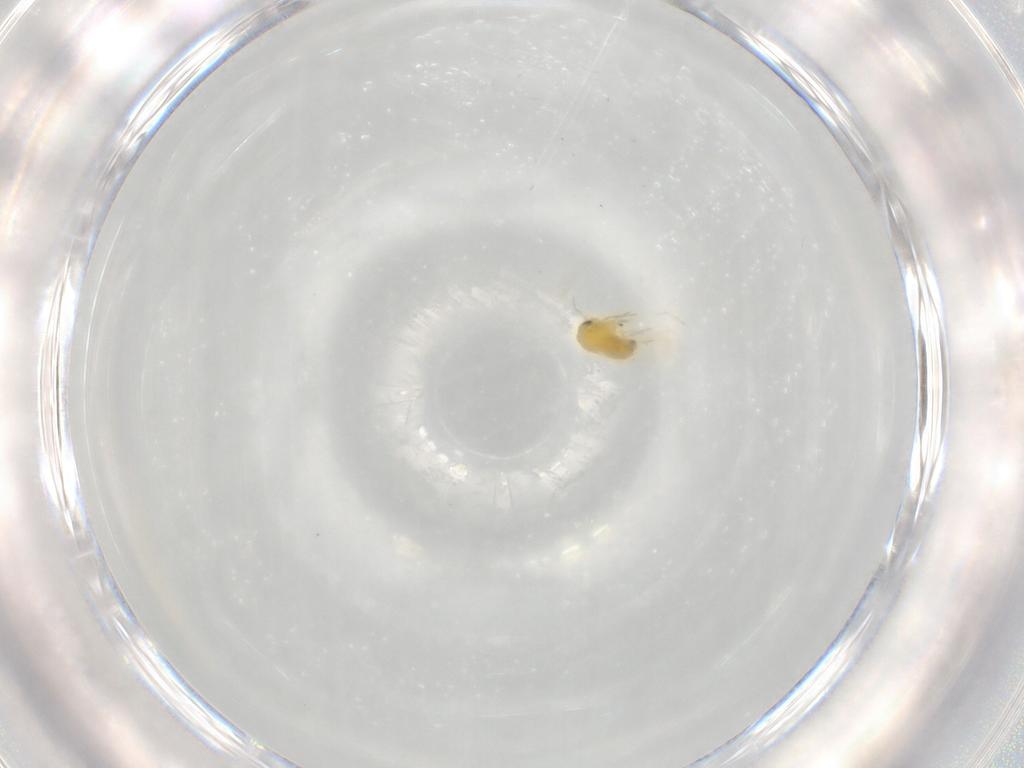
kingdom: Animalia
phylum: Arthropoda
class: Insecta
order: Hemiptera
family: Aleyrodidae
